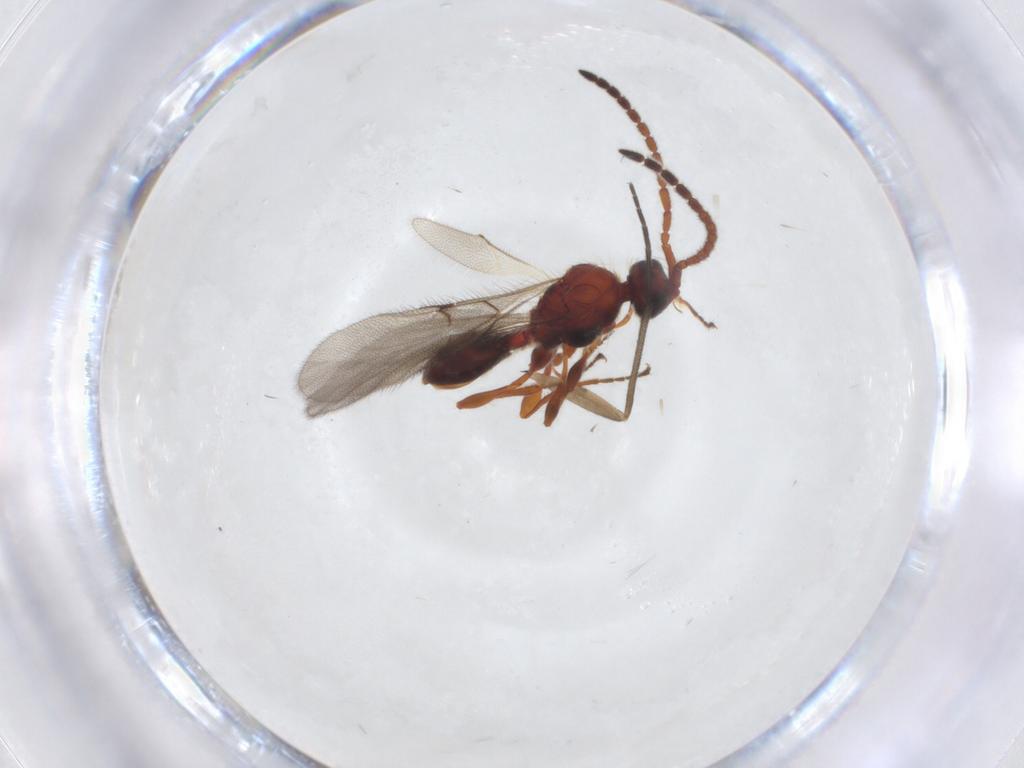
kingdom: Animalia
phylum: Arthropoda
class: Insecta
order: Hymenoptera
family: Diapriidae
